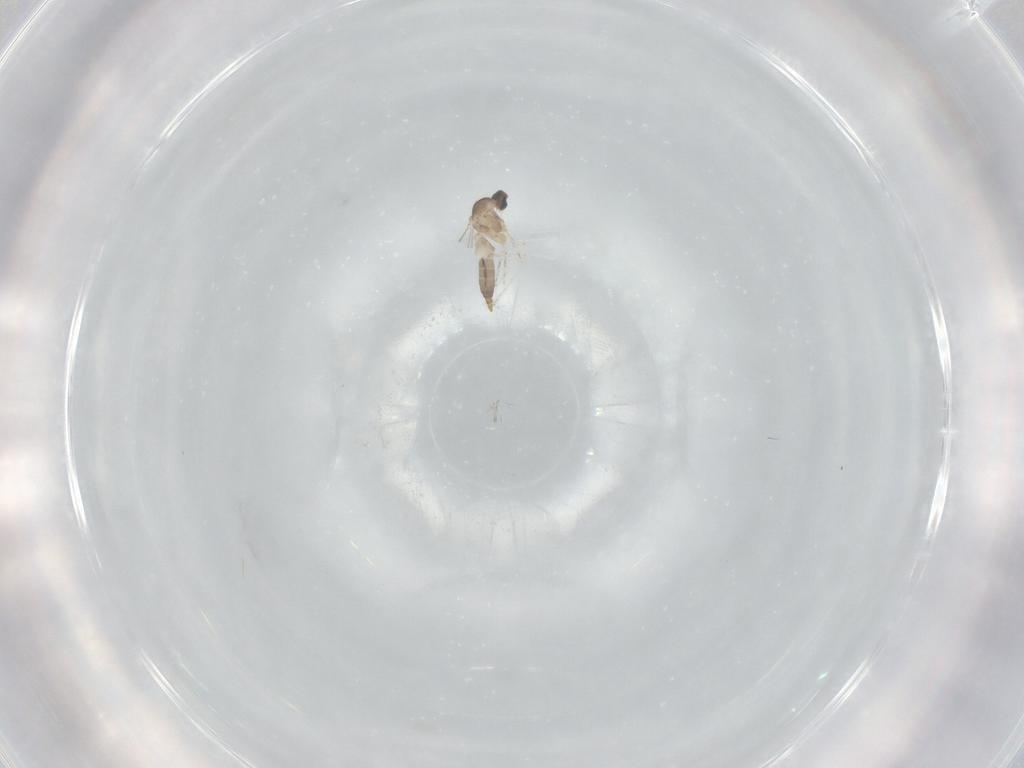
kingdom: Animalia
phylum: Arthropoda
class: Insecta
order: Diptera
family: Cecidomyiidae
